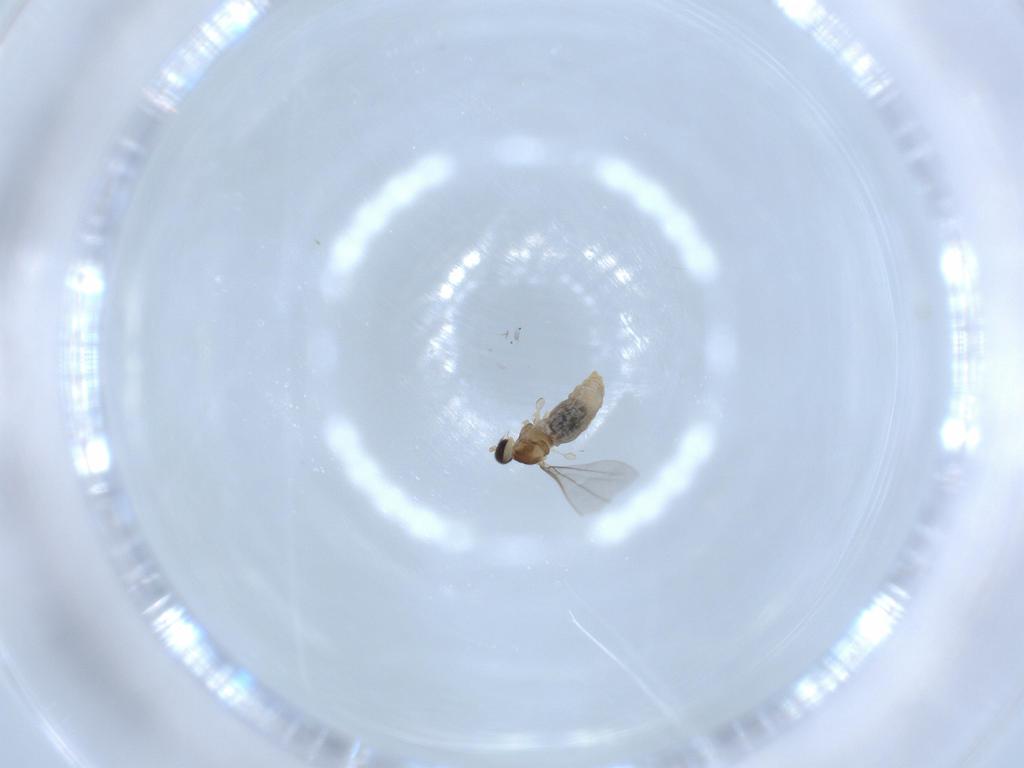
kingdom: Animalia
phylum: Arthropoda
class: Insecta
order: Diptera
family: Cecidomyiidae
